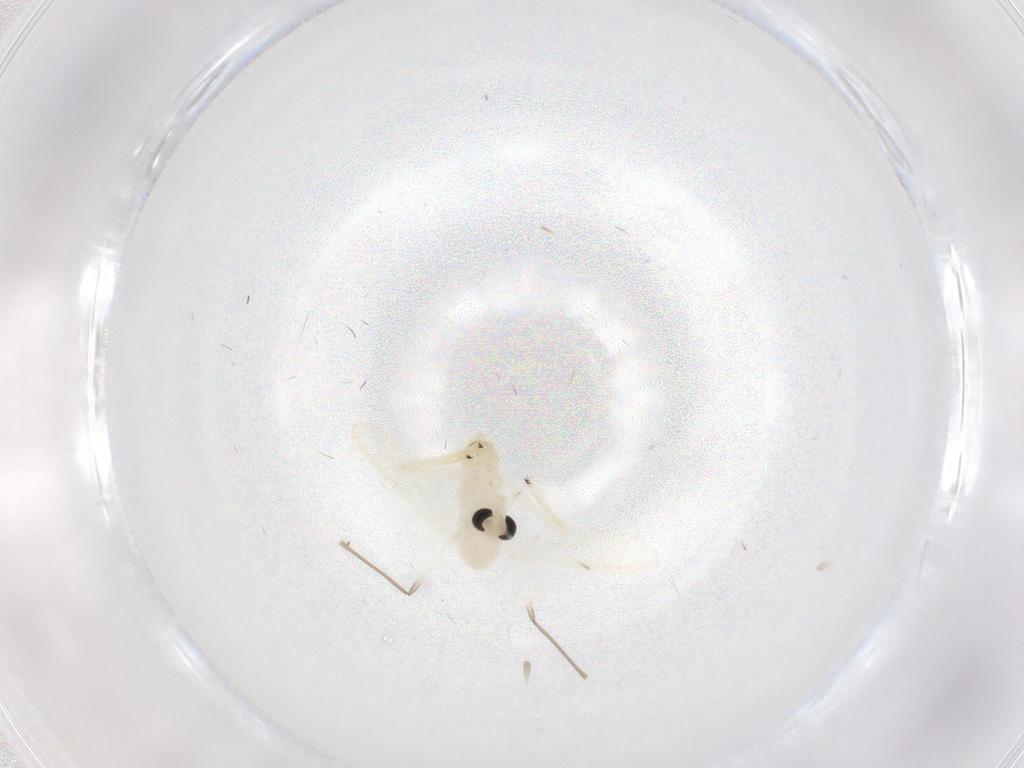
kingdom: Animalia
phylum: Arthropoda
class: Insecta
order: Diptera
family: Chironomidae
